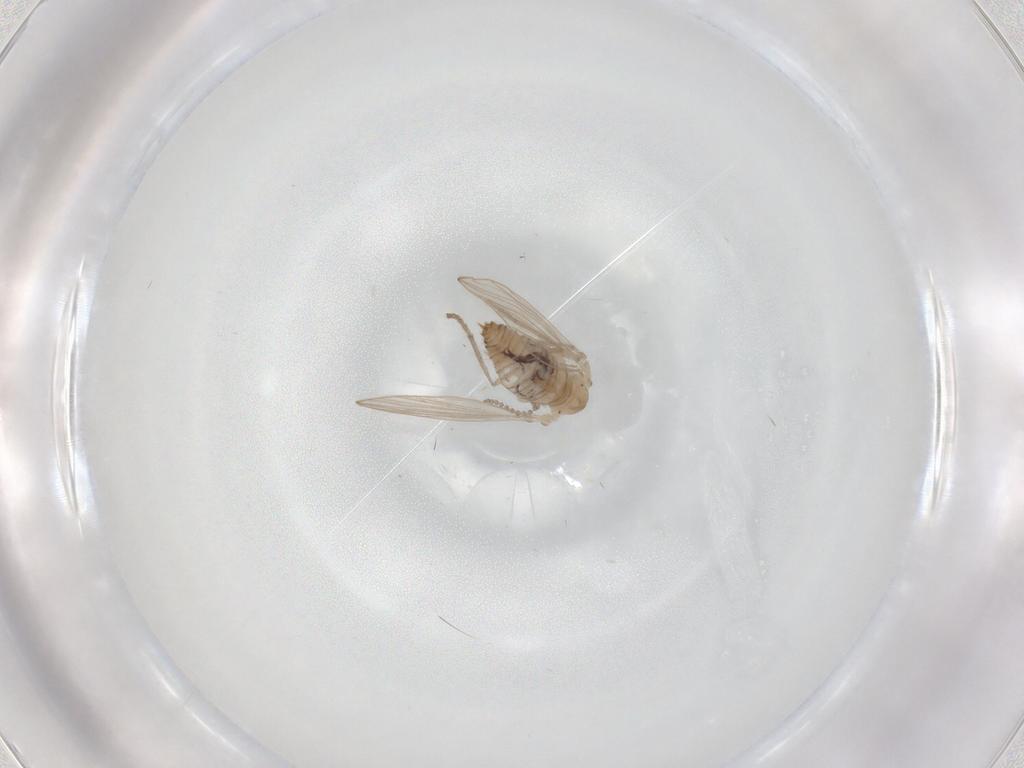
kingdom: Animalia
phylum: Arthropoda
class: Insecta
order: Diptera
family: Psychodidae
